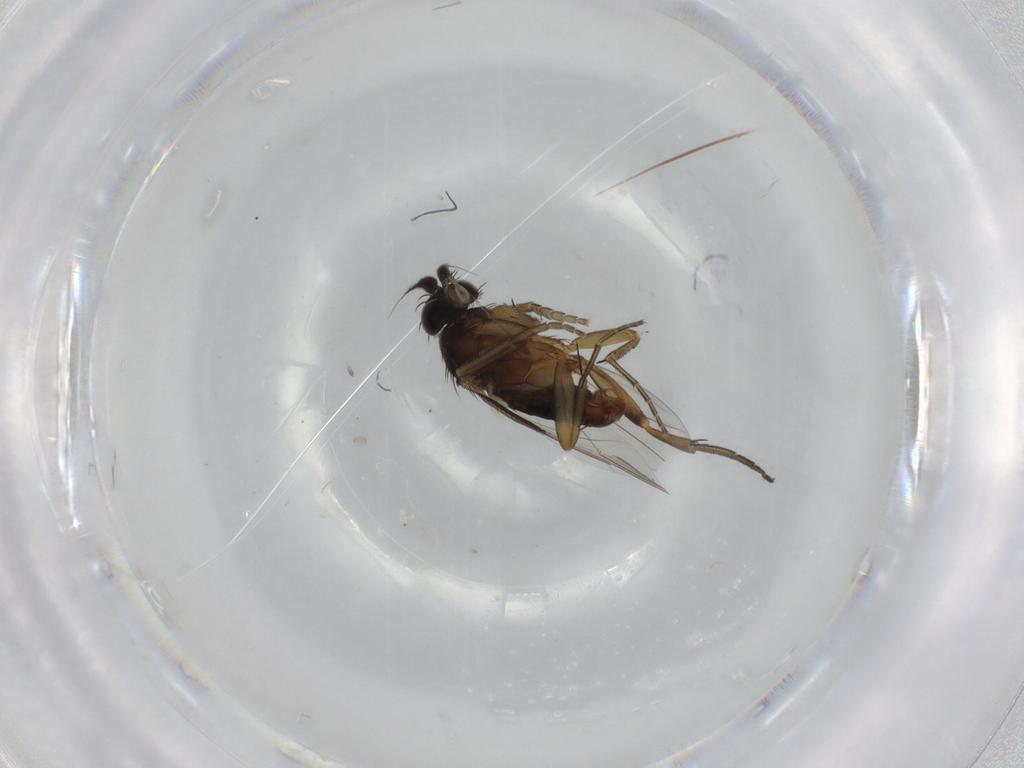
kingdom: Animalia
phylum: Arthropoda
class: Insecta
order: Diptera
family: Phoridae
